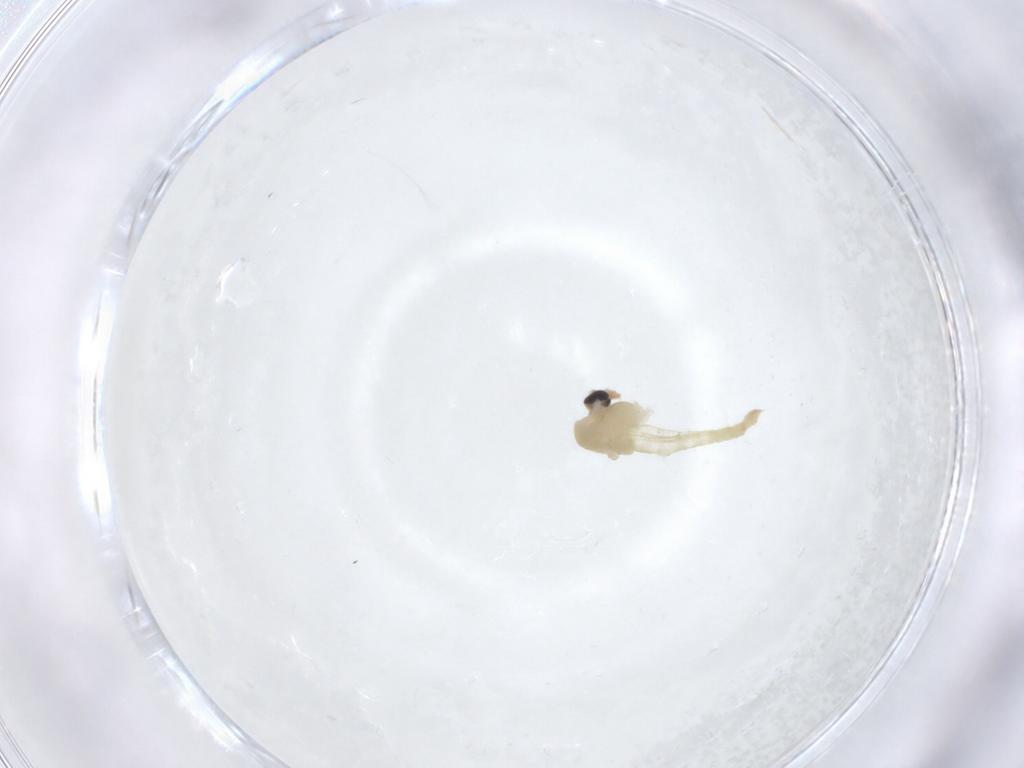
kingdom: Animalia
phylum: Arthropoda
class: Insecta
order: Diptera
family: Chironomidae
